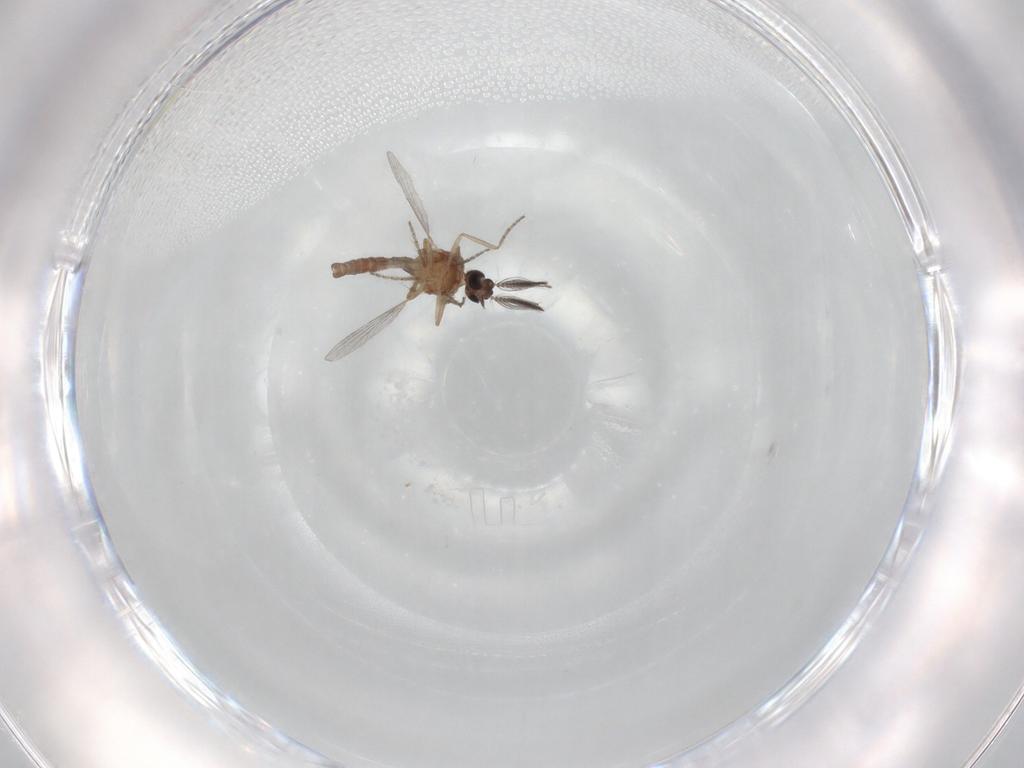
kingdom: Animalia
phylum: Arthropoda
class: Insecta
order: Diptera
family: Ceratopogonidae
